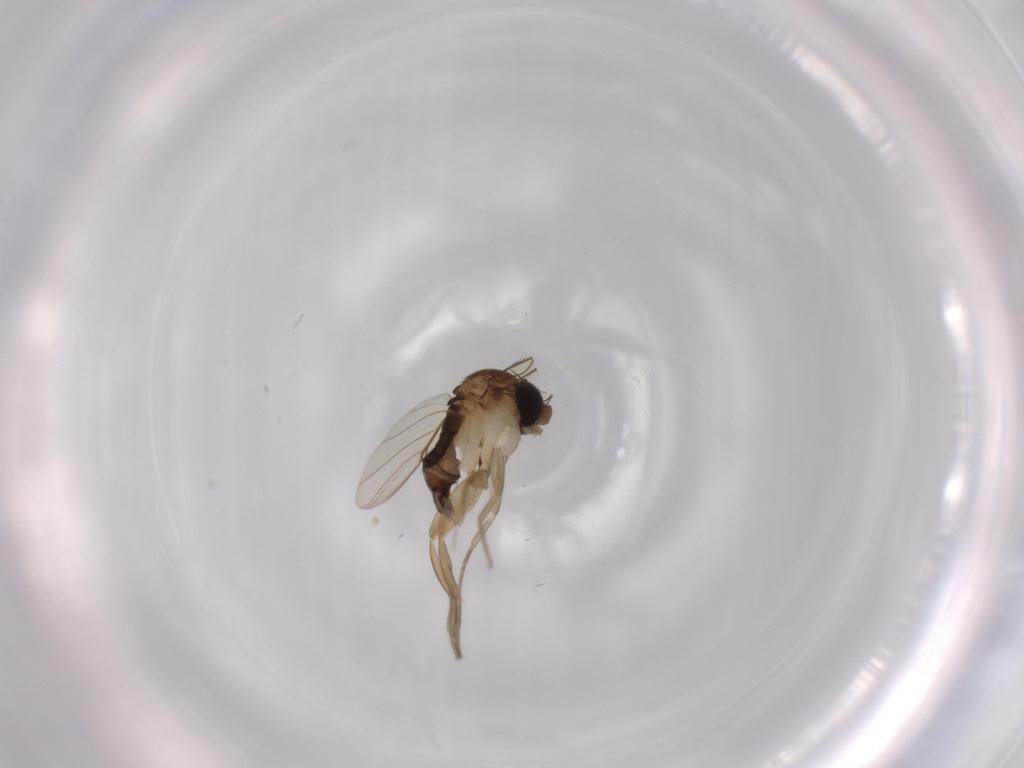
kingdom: Animalia
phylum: Arthropoda
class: Insecta
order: Diptera
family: Phoridae
